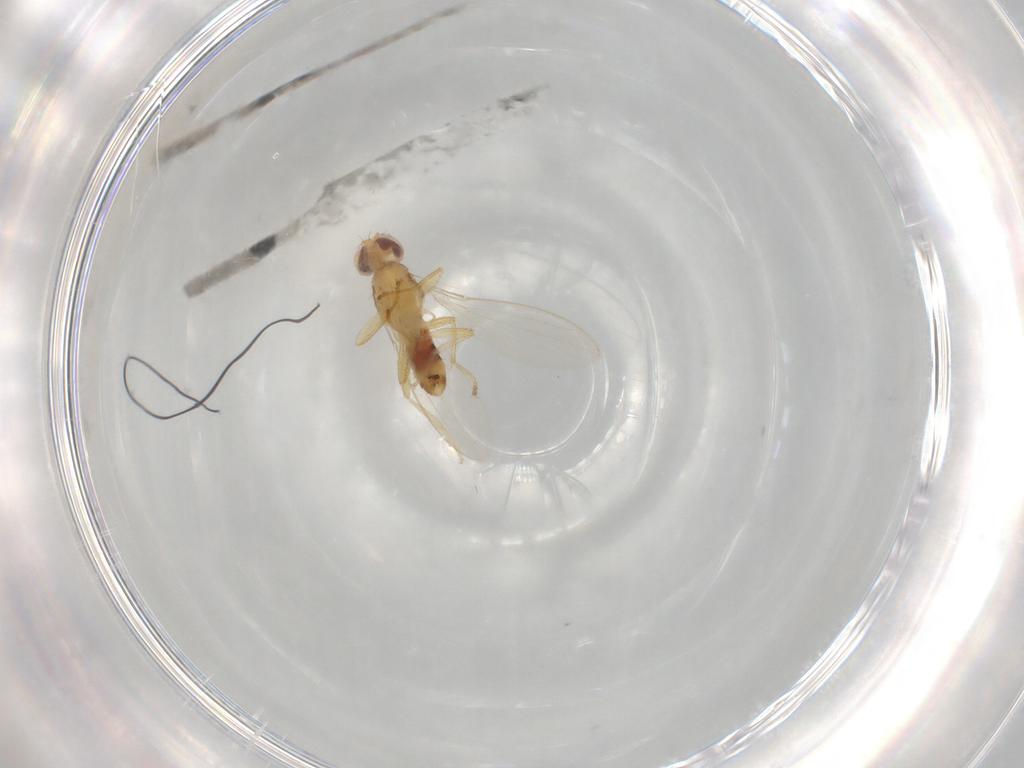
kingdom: Animalia
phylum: Arthropoda
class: Insecta
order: Diptera
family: Periscelididae
